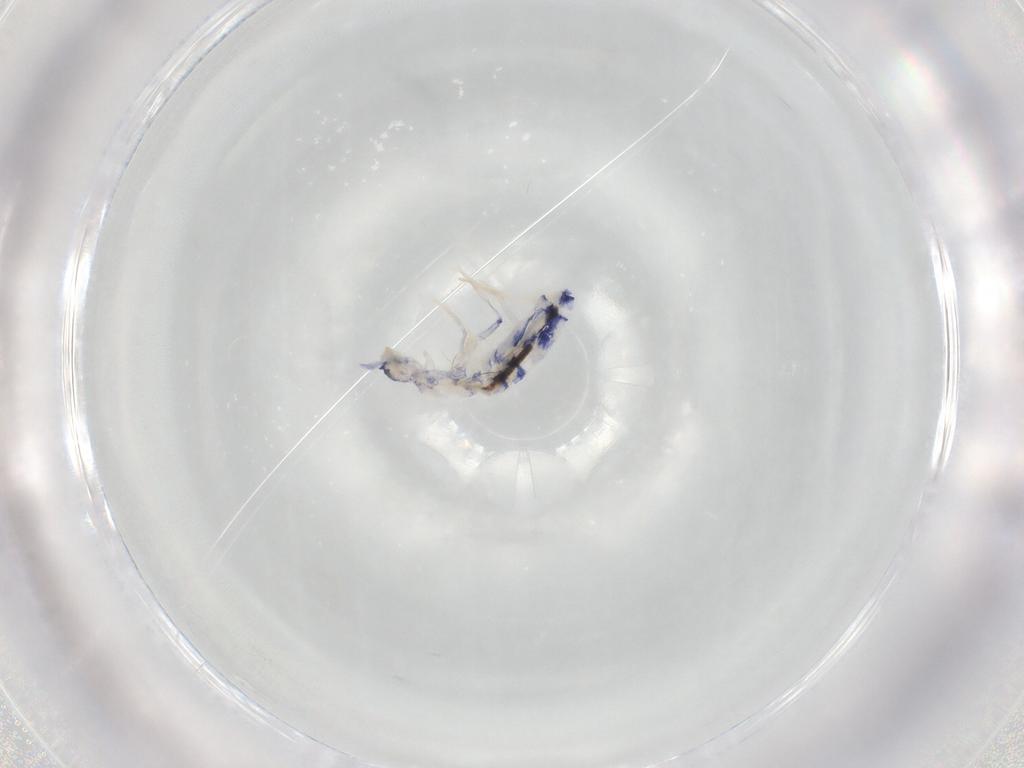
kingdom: Animalia
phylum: Arthropoda
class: Collembola
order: Entomobryomorpha
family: Entomobryidae
